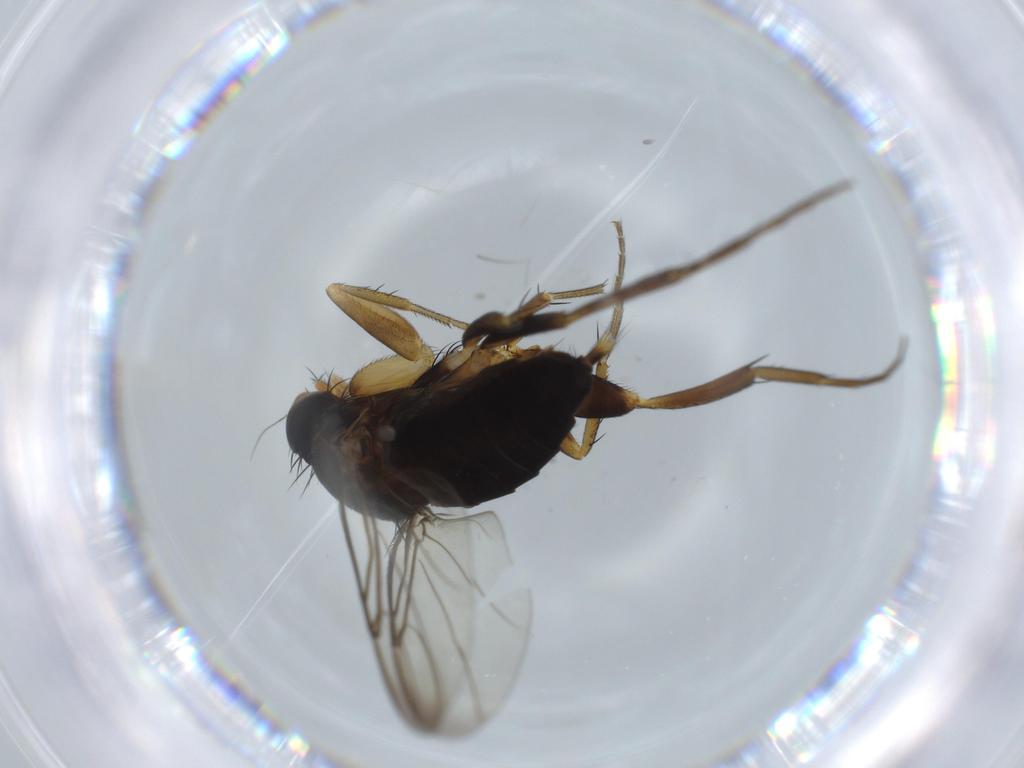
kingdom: Animalia
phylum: Arthropoda
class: Insecta
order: Diptera
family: Phoridae
